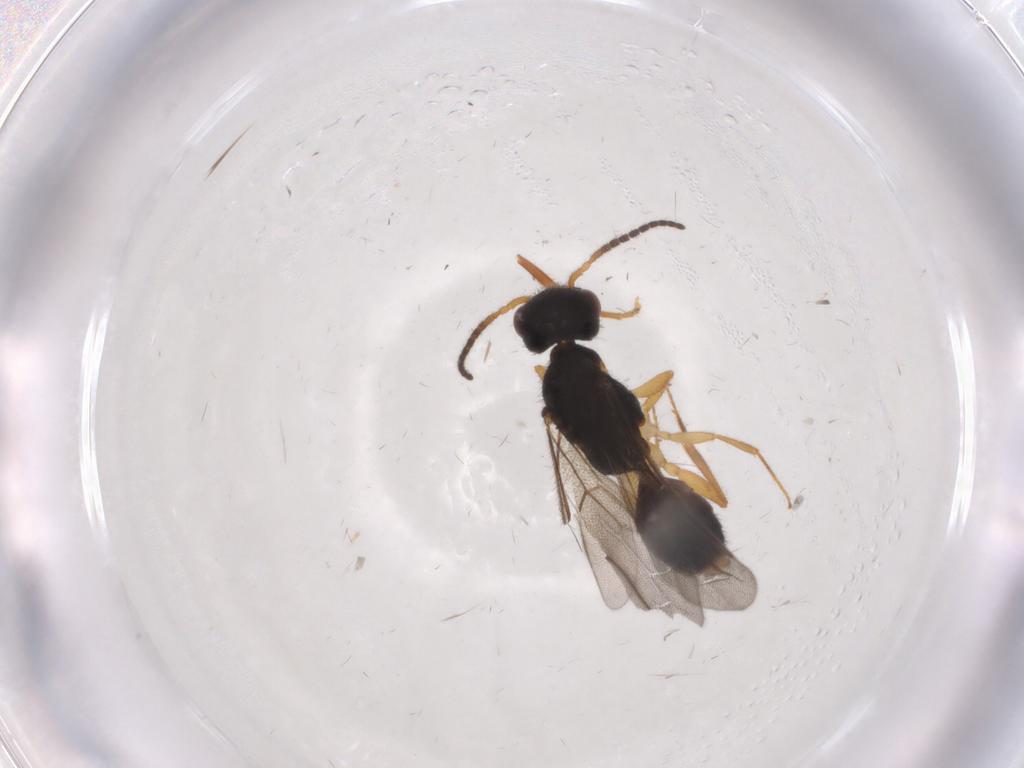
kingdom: Animalia
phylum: Arthropoda
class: Insecta
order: Hymenoptera
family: Bethylidae
